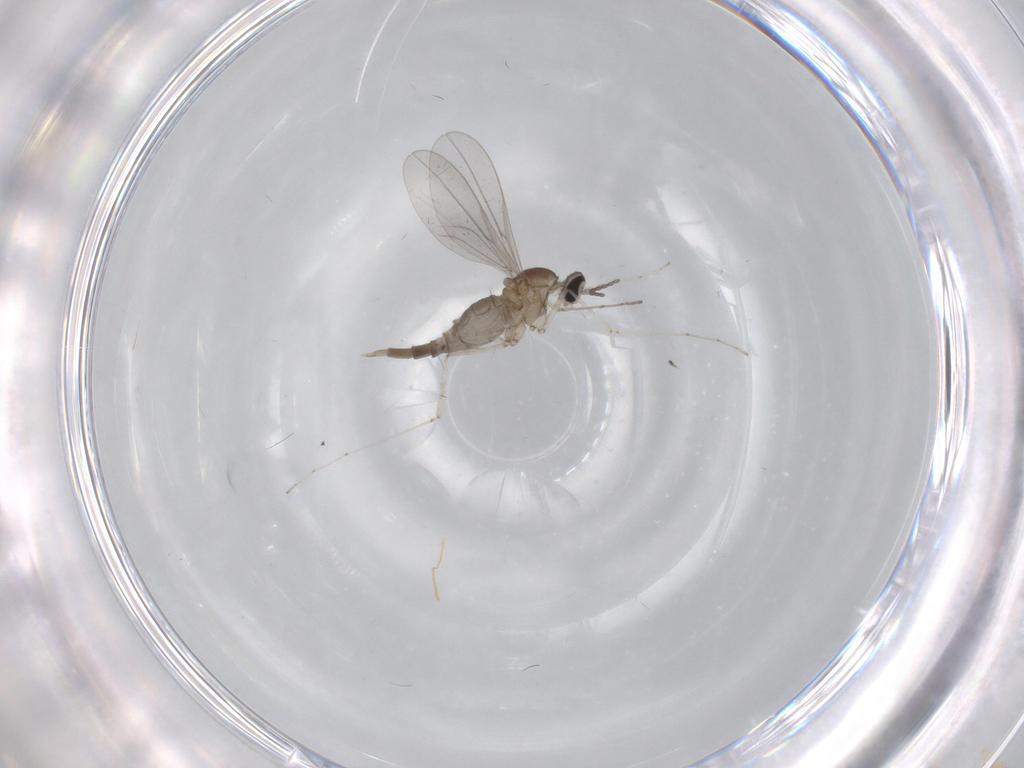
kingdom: Animalia
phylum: Arthropoda
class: Insecta
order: Diptera
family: Cecidomyiidae
